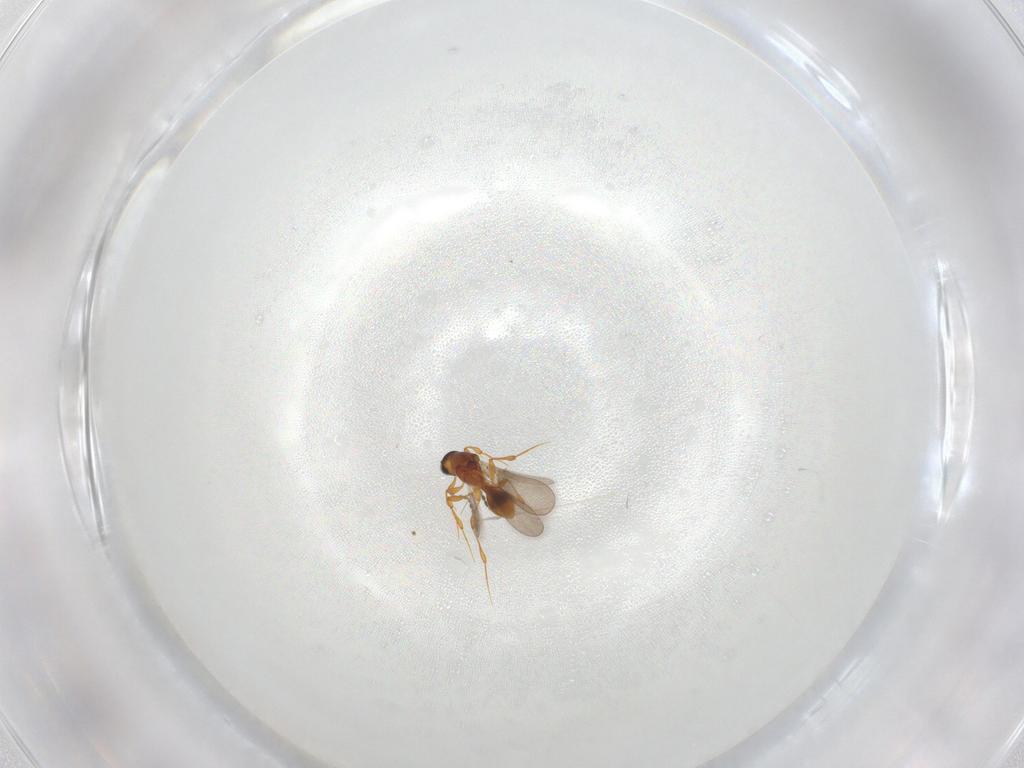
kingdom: Animalia
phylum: Arthropoda
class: Insecta
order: Hymenoptera
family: Platygastridae
